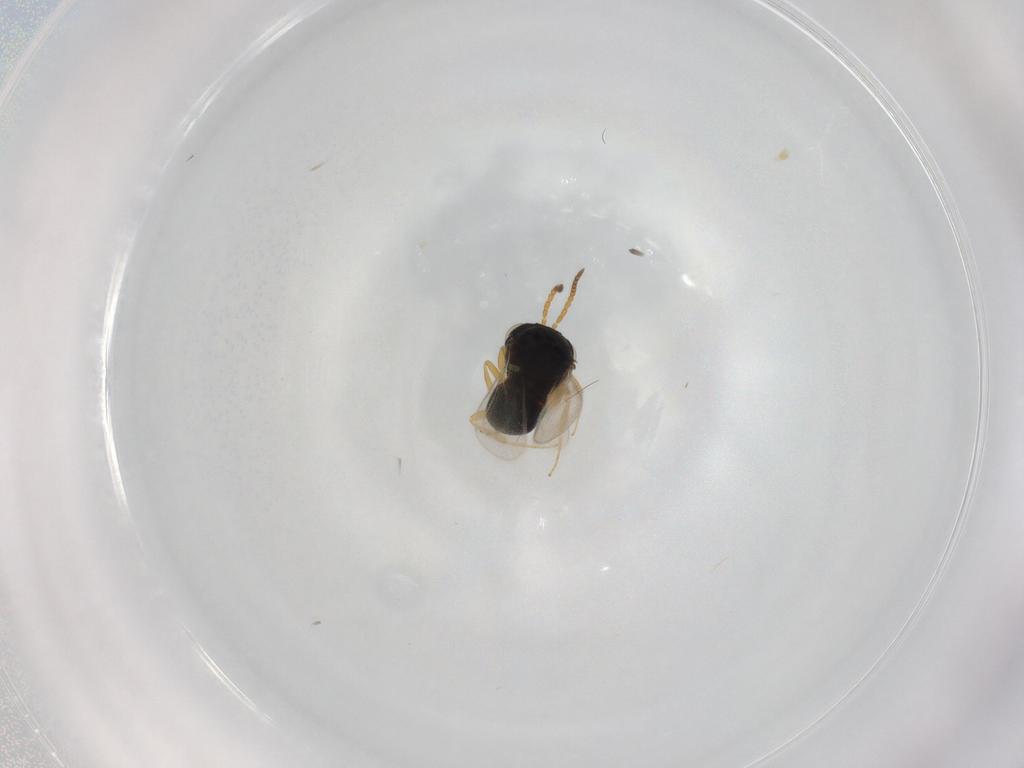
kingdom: Animalia
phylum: Arthropoda
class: Insecta
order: Hymenoptera
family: Scelionidae
